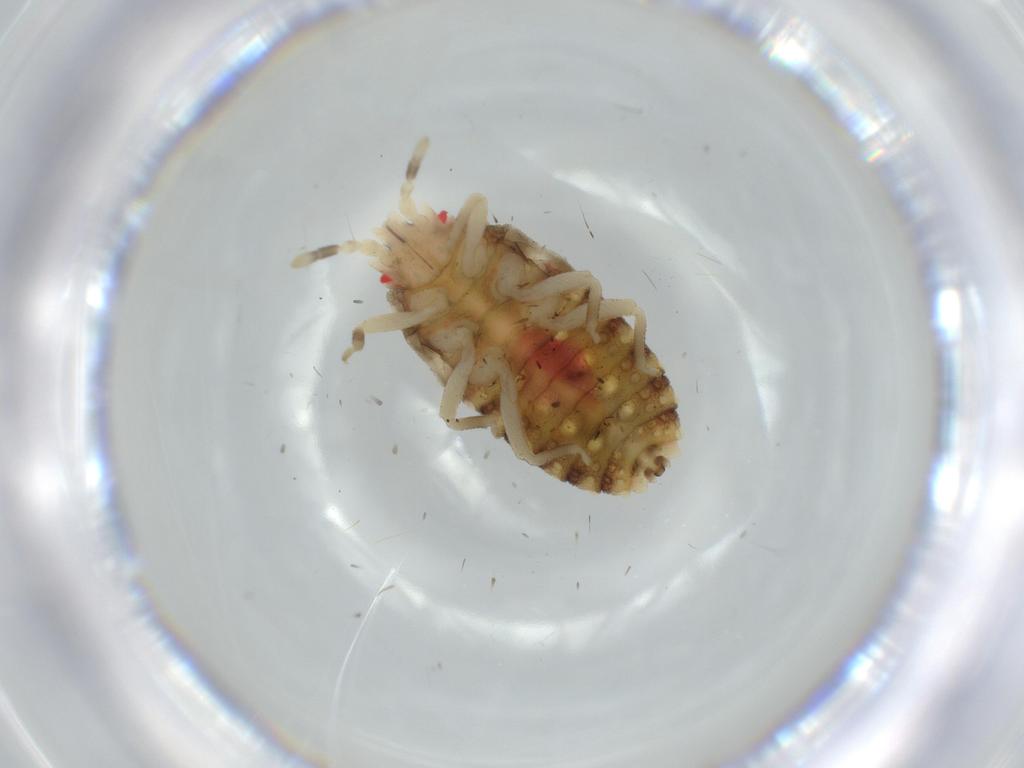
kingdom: Animalia
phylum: Arthropoda
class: Insecta
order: Hemiptera
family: Aradidae
